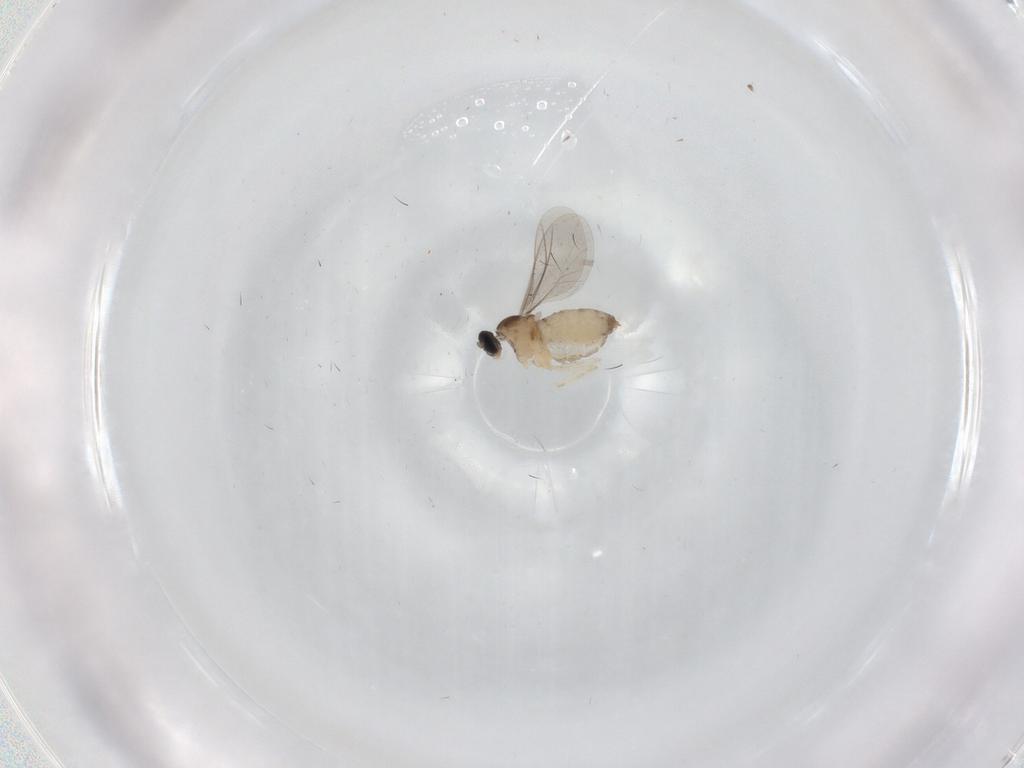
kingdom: Animalia
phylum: Arthropoda
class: Insecta
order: Diptera
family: Cecidomyiidae
